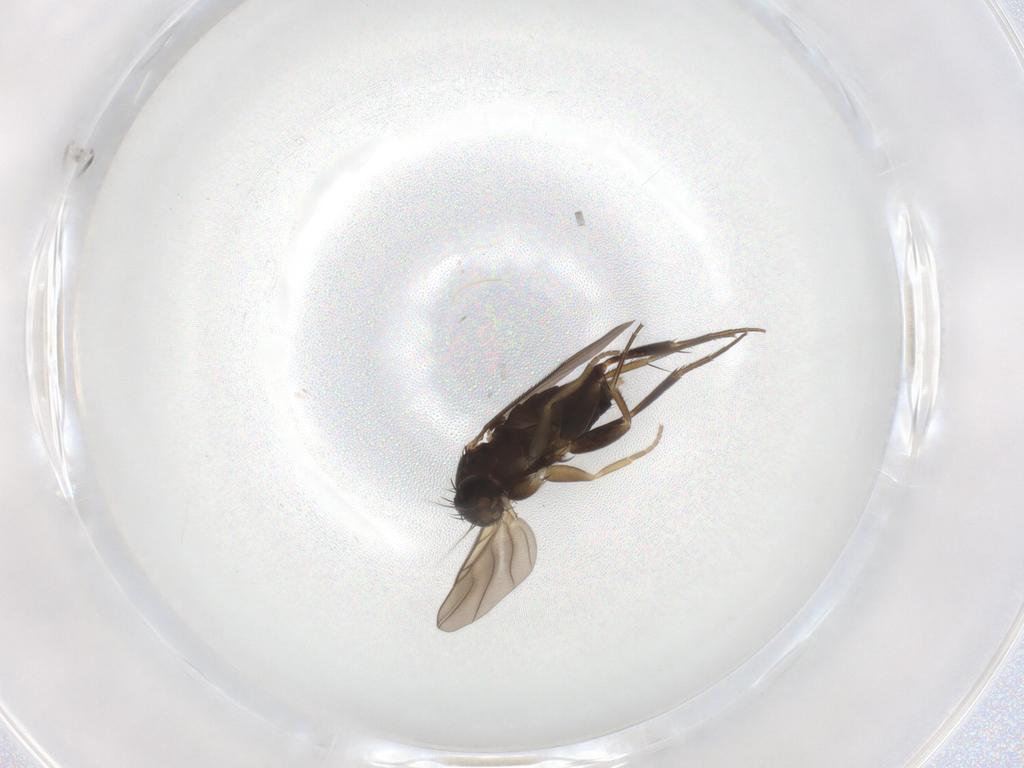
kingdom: Animalia
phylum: Arthropoda
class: Insecta
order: Diptera
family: Phoridae
